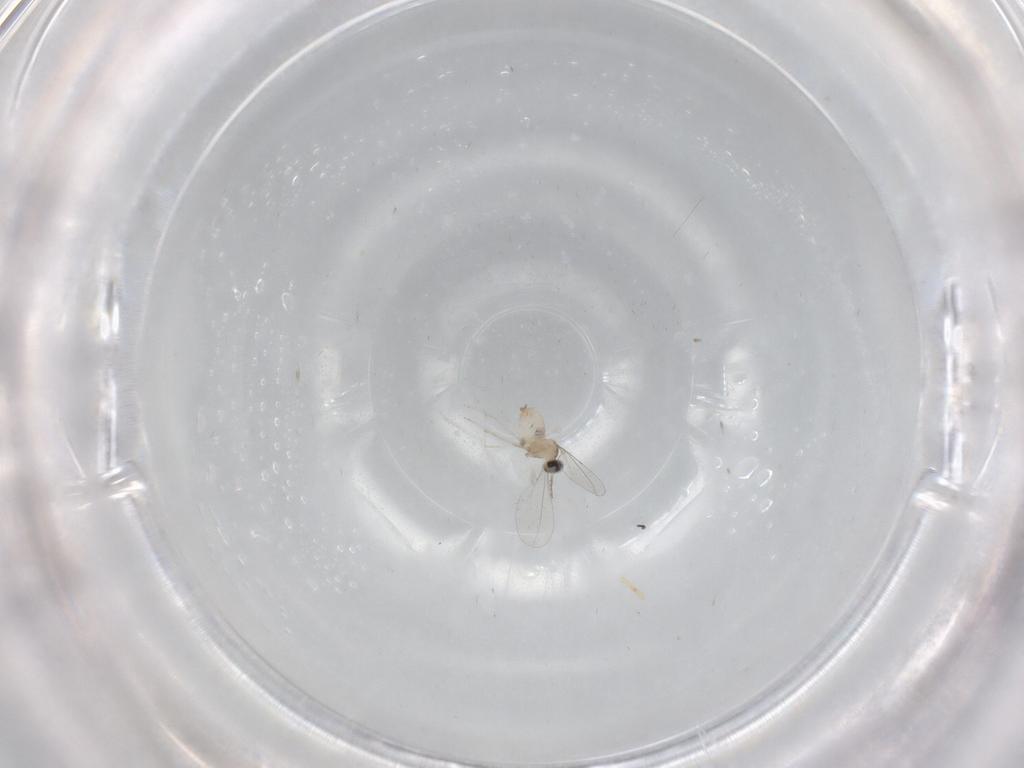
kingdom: Animalia
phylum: Arthropoda
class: Insecta
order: Diptera
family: Cecidomyiidae
